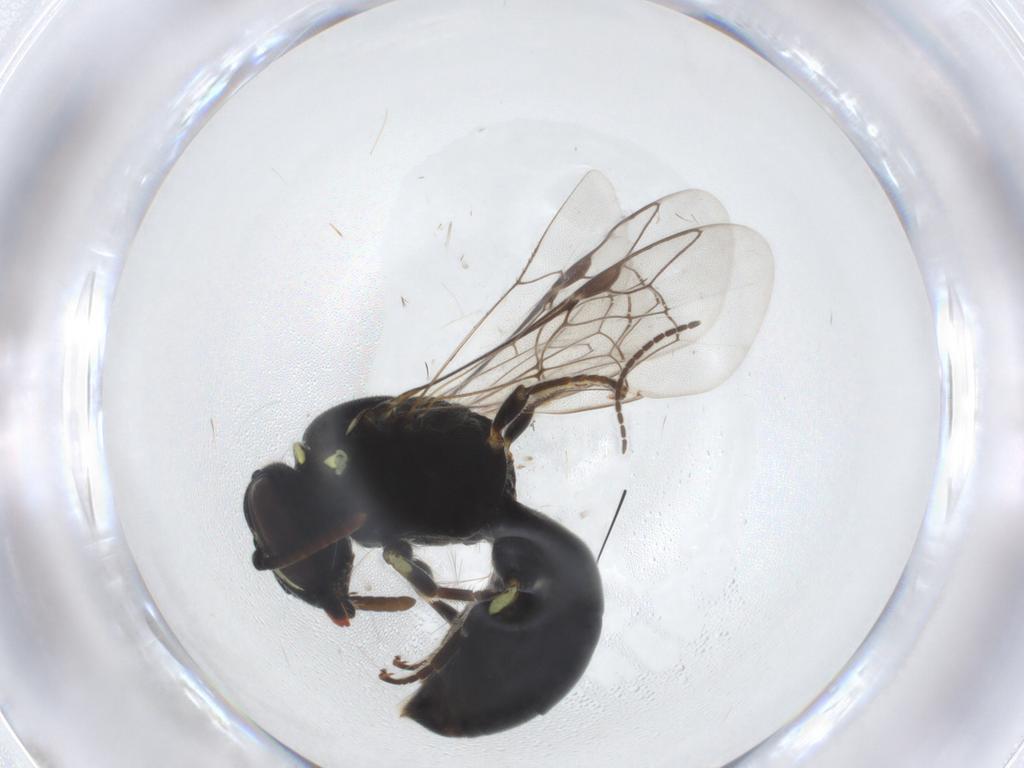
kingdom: Animalia
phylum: Arthropoda
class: Insecta
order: Hymenoptera
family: Colletidae
